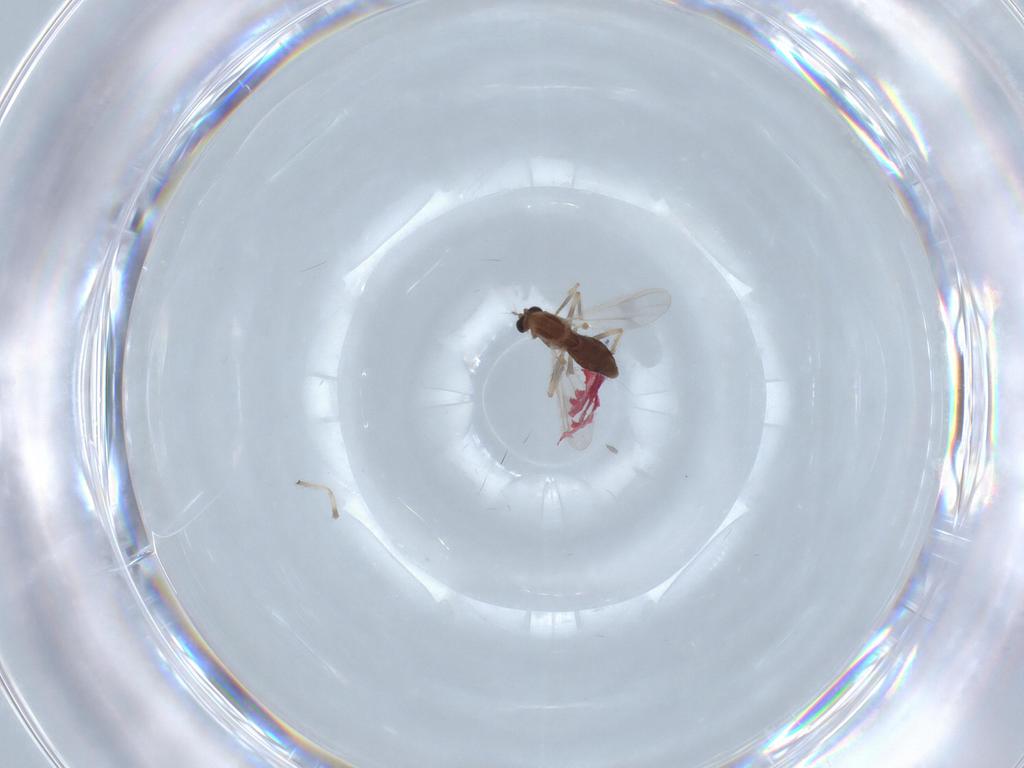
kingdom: Animalia
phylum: Arthropoda
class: Insecta
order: Diptera
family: Chironomidae
